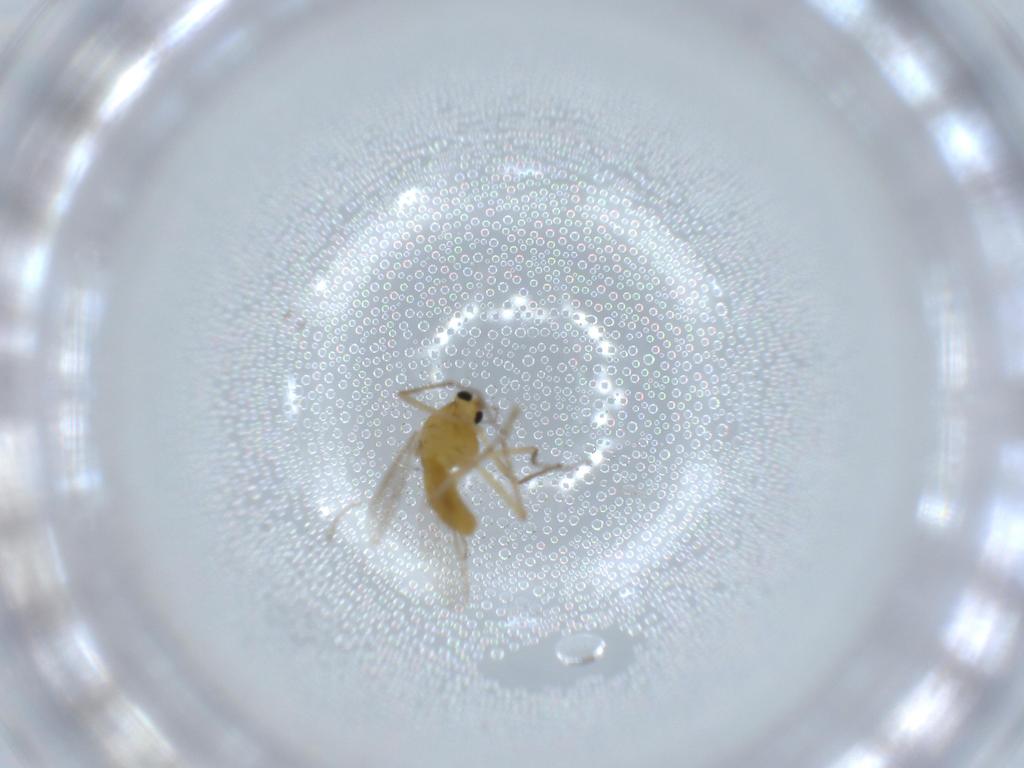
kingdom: Animalia
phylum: Arthropoda
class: Insecta
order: Diptera
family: Chironomidae
